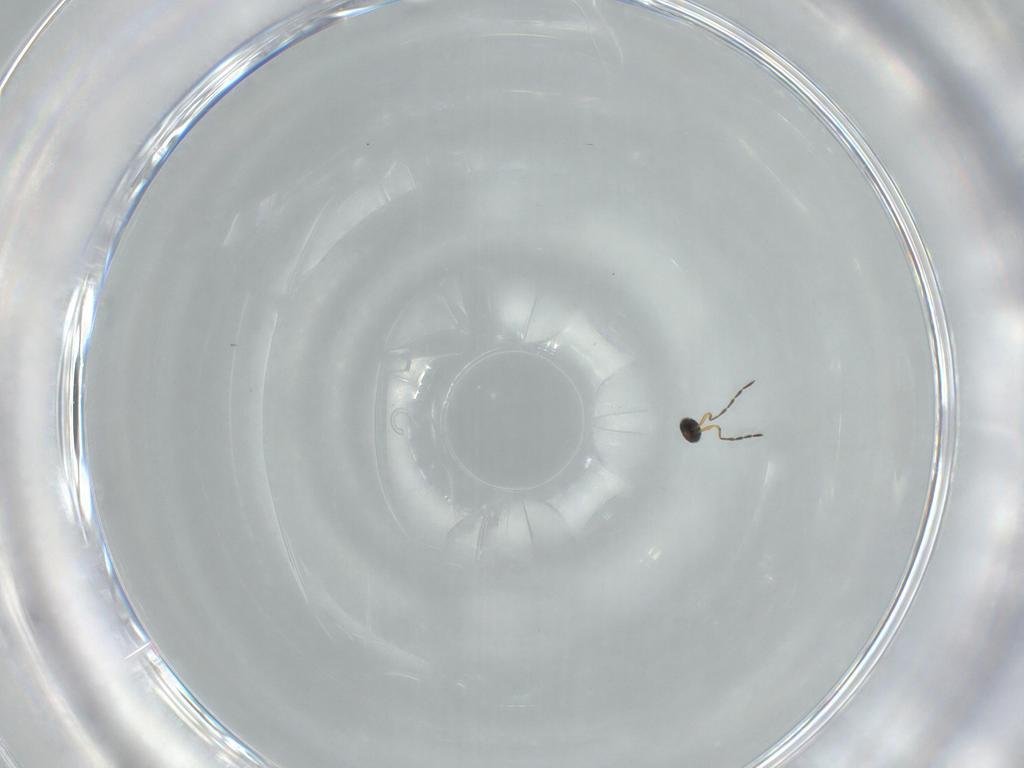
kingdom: Animalia
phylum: Arthropoda
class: Insecta
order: Hymenoptera
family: Platygastridae
